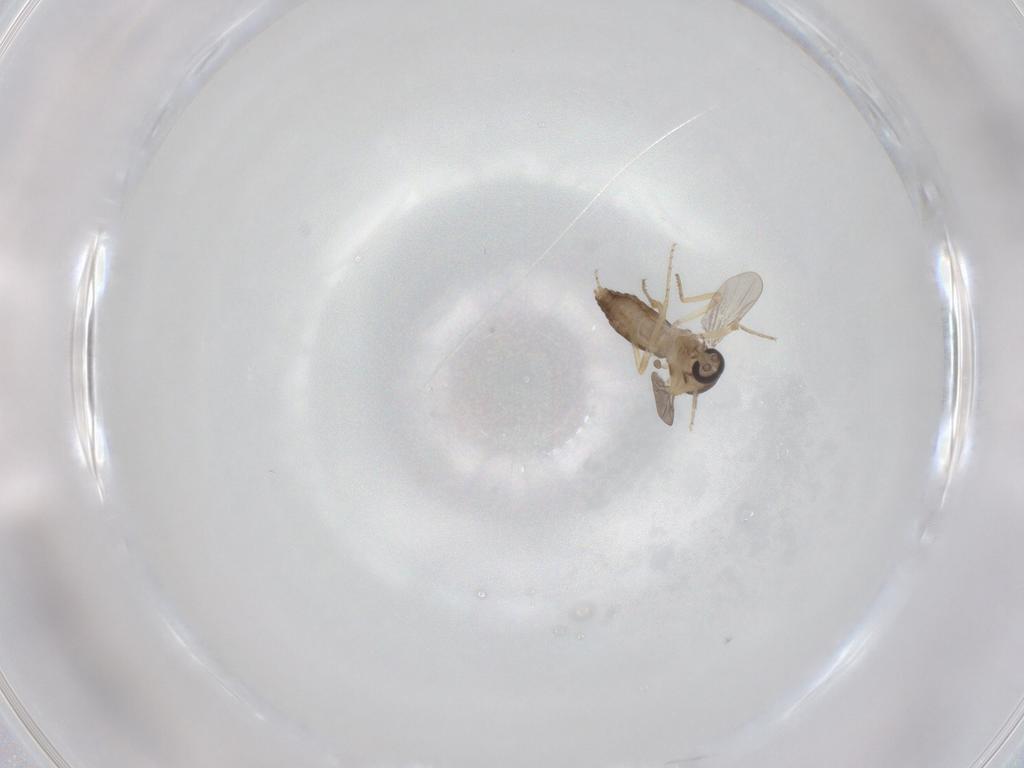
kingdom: Animalia
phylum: Arthropoda
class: Insecta
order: Diptera
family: Ceratopogonidae
